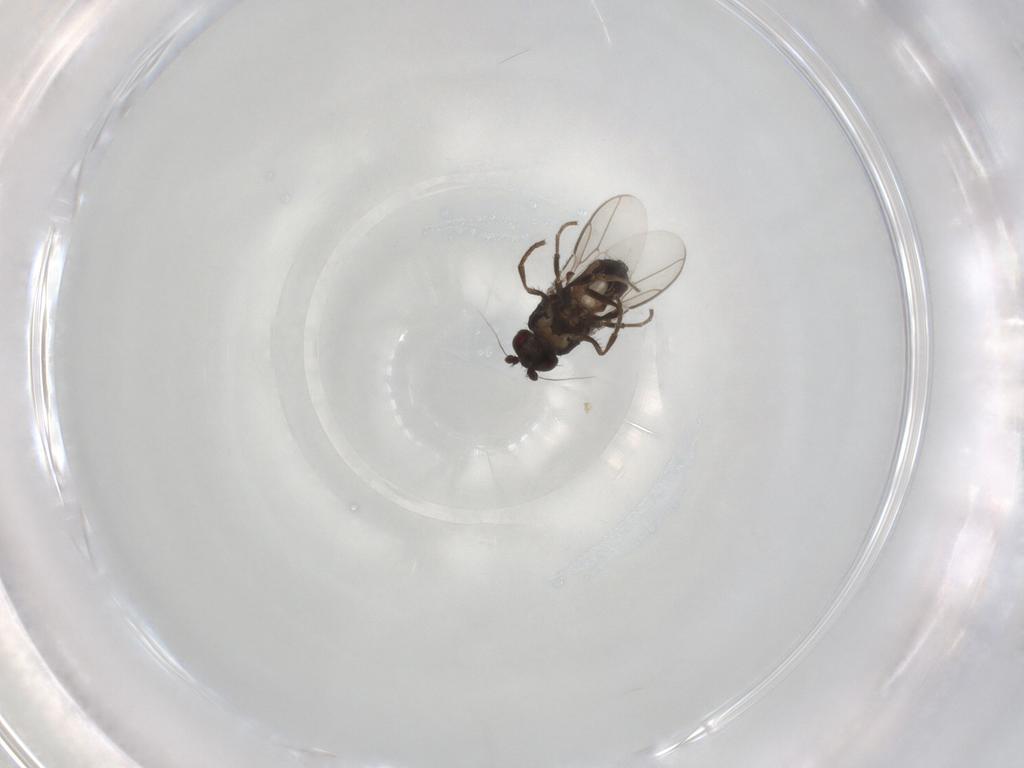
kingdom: Animalia
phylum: Arthropoda
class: Insecta
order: Diptera
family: Sphaeroceridae
